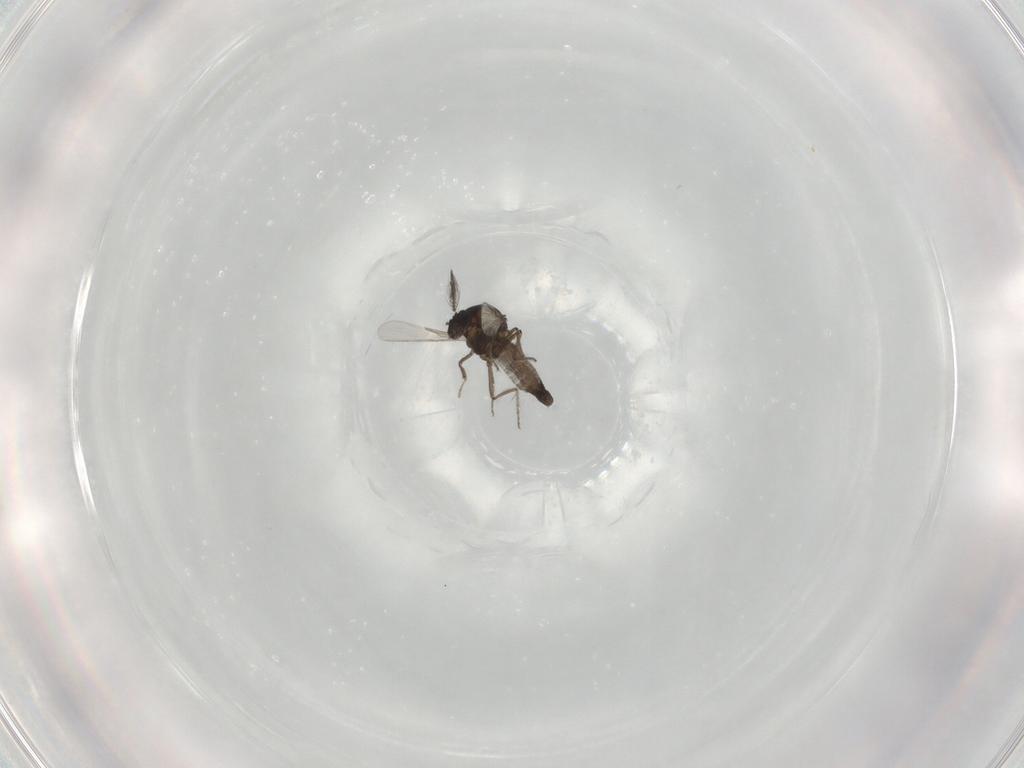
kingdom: Animalia
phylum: Arthropoda
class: Insecta
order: Diptera
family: Ceratopogonidae
